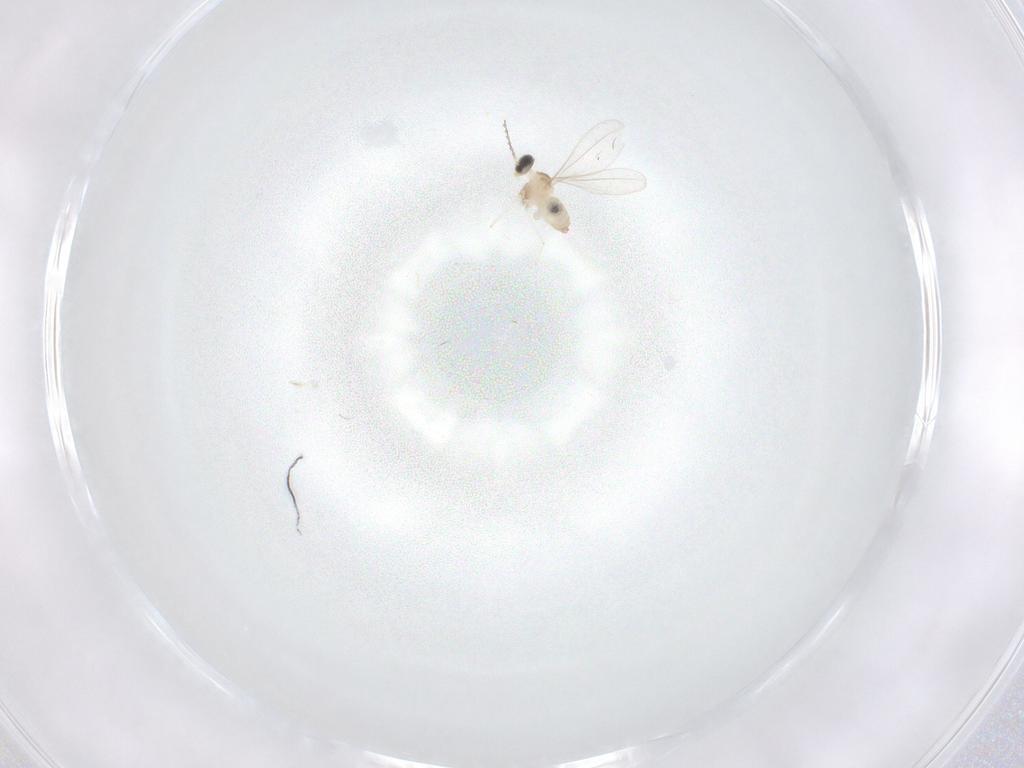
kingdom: Animalia
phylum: Arthropoda
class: Insecta
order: Diptera
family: Cecidomyiidae
